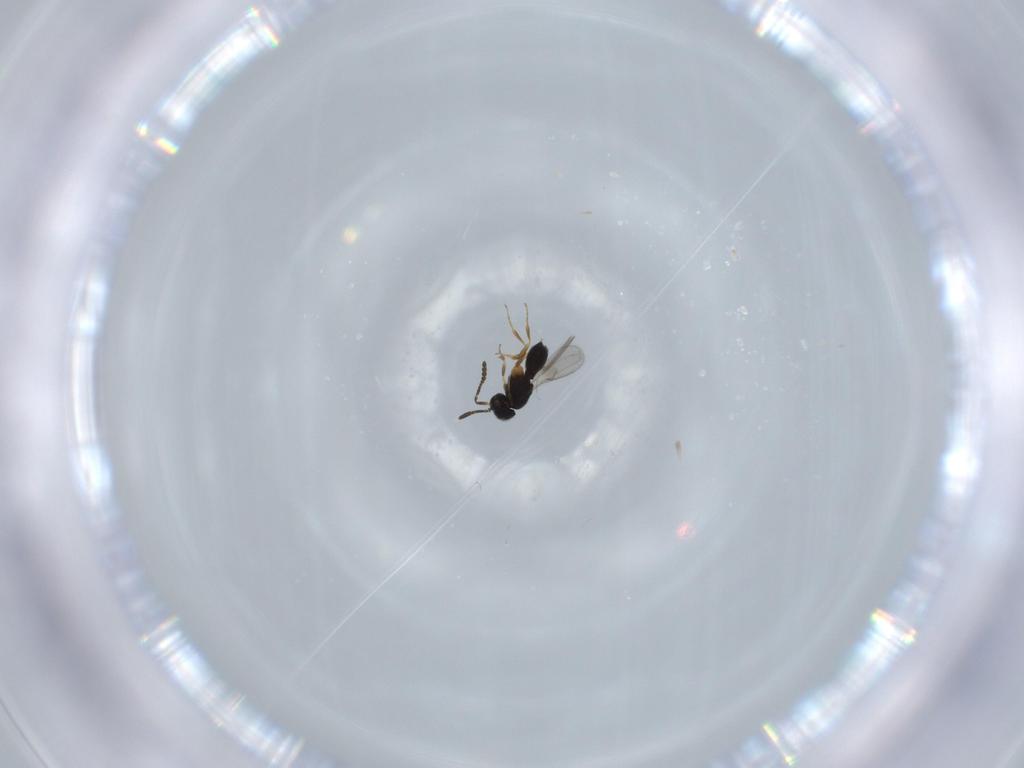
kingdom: Animalia
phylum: Arthropoda
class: Insecta
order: Hymenoptera
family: Scelionidae
